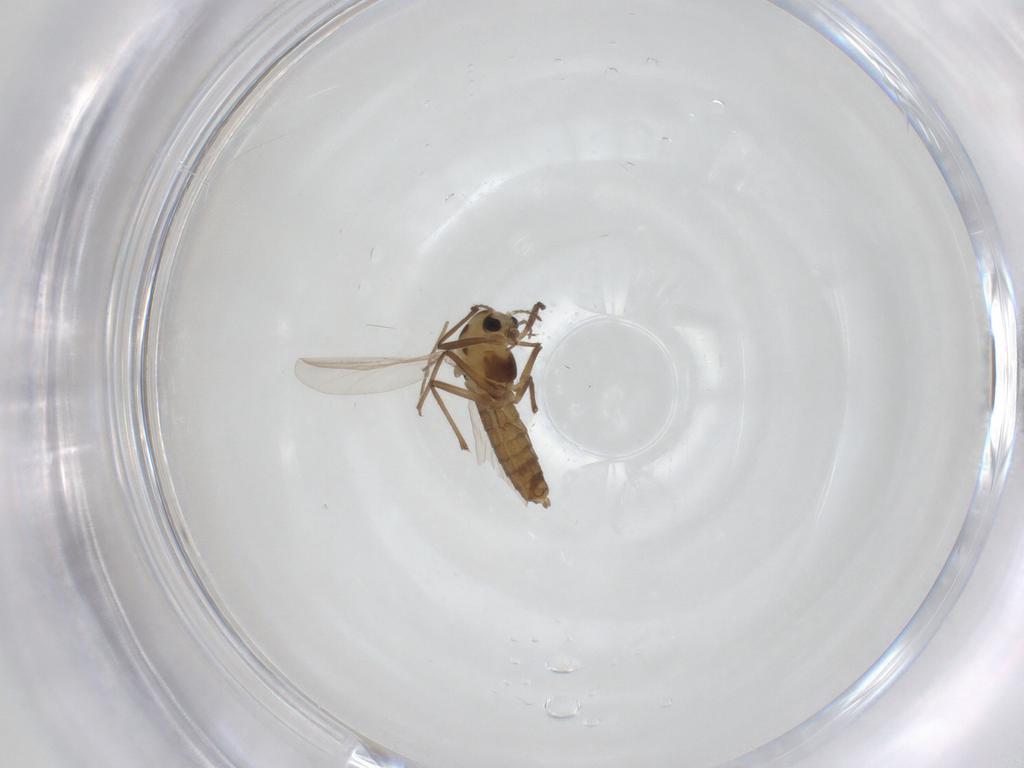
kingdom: Animalia
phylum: Arthropoda
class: Insecta
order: Diptera
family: Chironomidae
